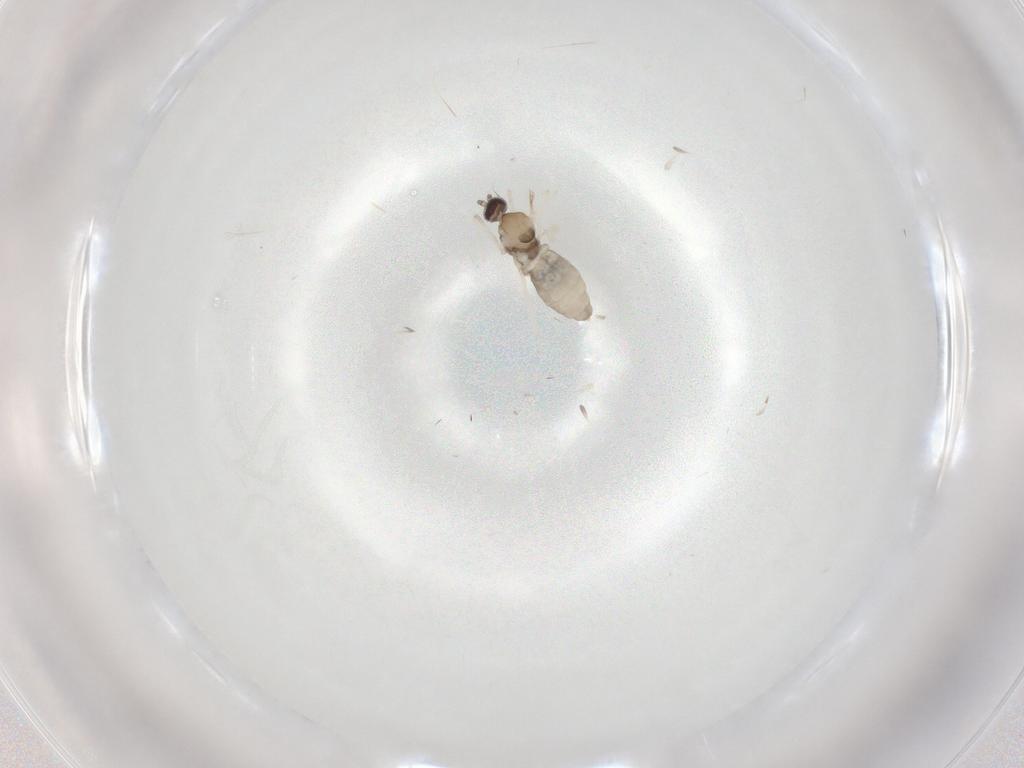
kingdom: Animalia
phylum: Arthropoda
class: Insecta
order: Diptera
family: Cecidomyiidae
